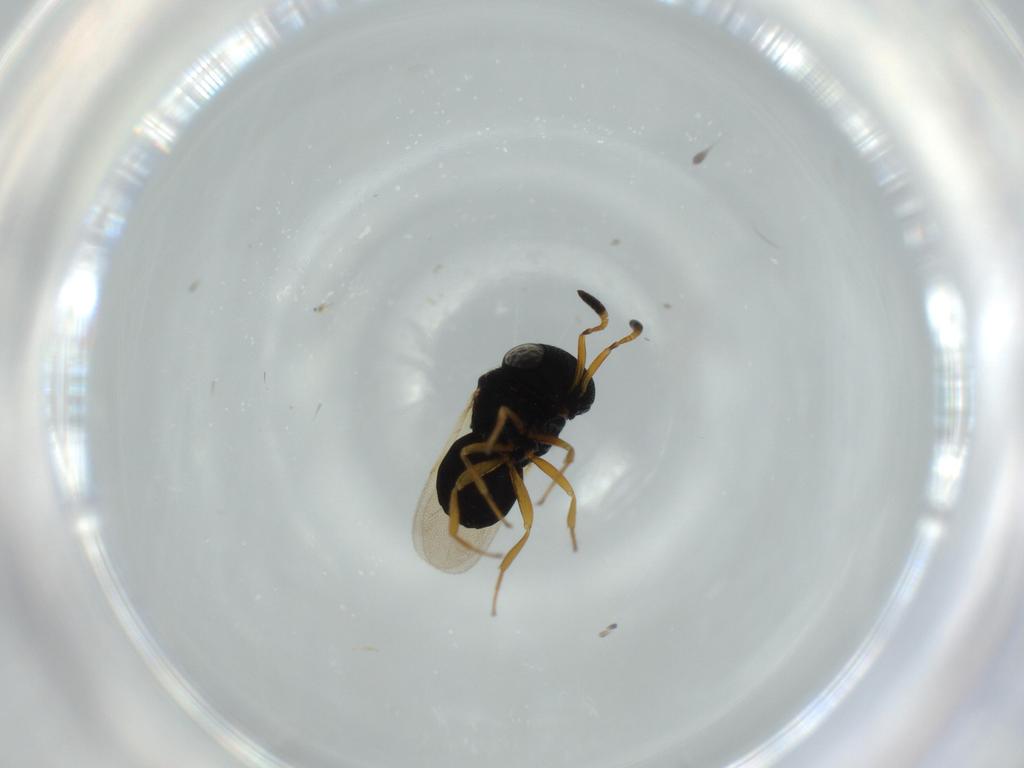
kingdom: Animalia
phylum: Arthropoda
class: Insecta
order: Hymenoptera
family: Scelionidae
